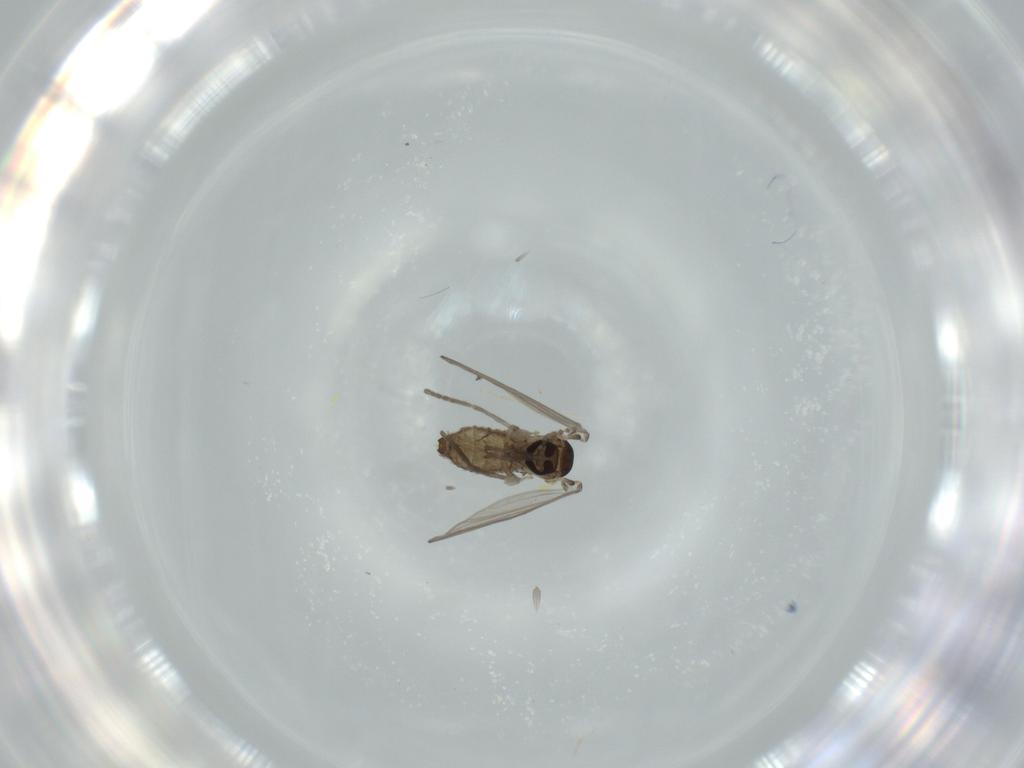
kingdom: Animalia
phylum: Arthropoda
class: Insecta
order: Diptera
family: Psychodidae
